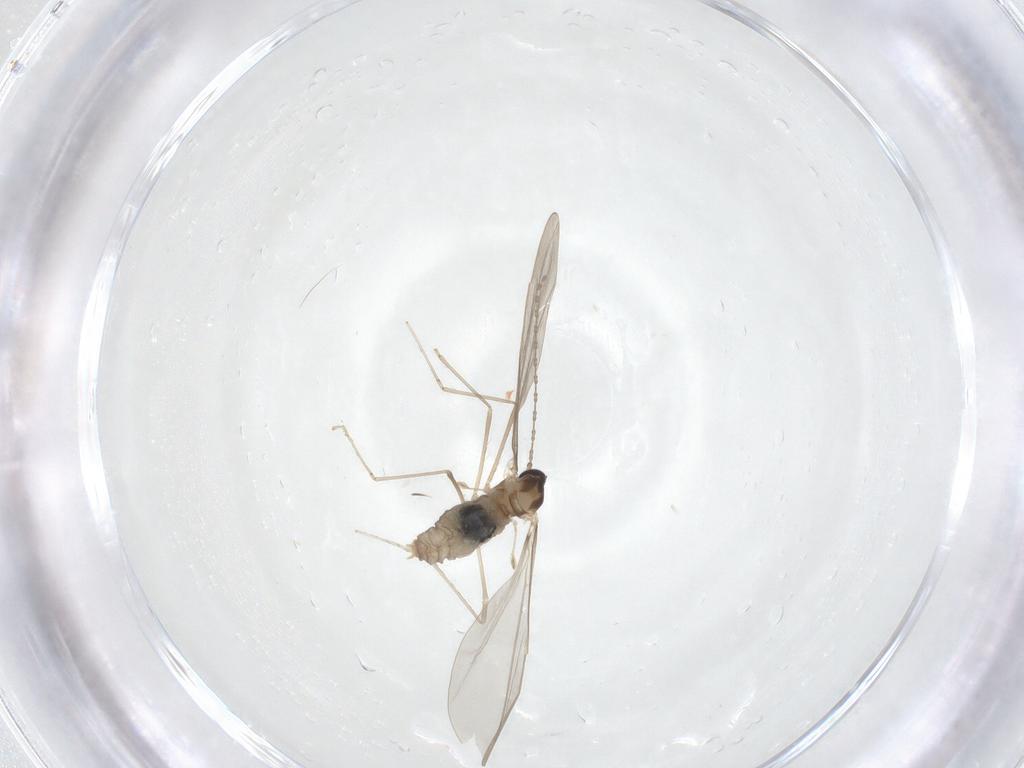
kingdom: Animalia
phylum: Arthropoda
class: Insecta
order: Diptera
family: Cecidomyiidae
